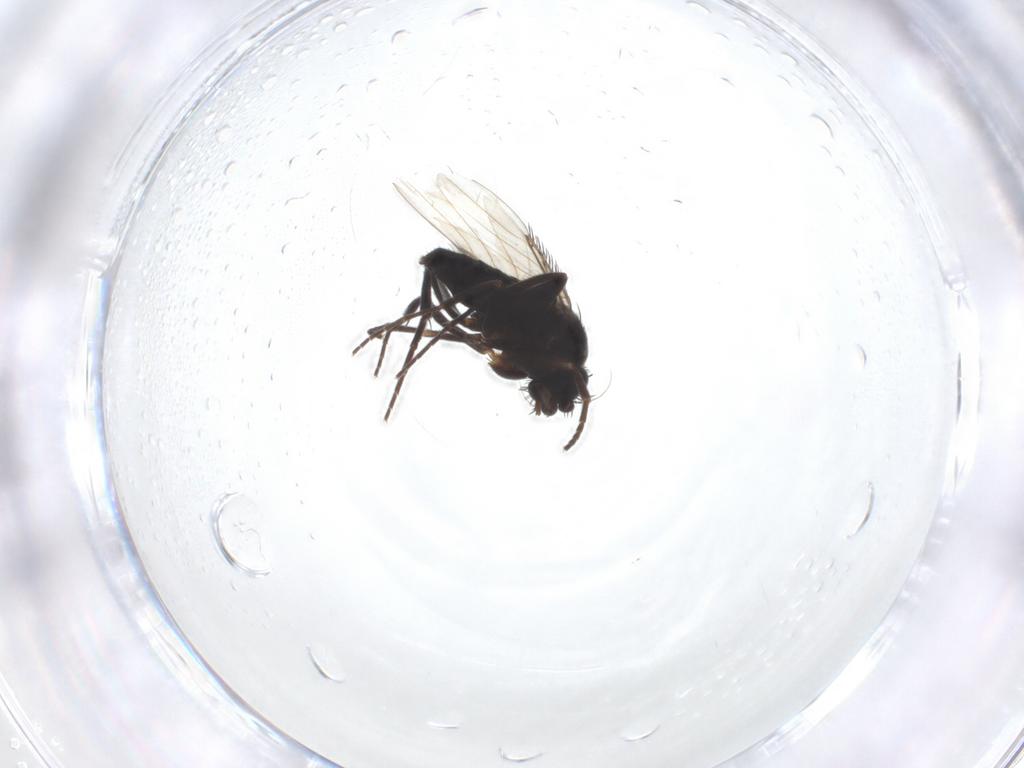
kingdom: Animalia
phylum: Arthropoda
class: Insecta
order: Diptera
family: Phoridae
